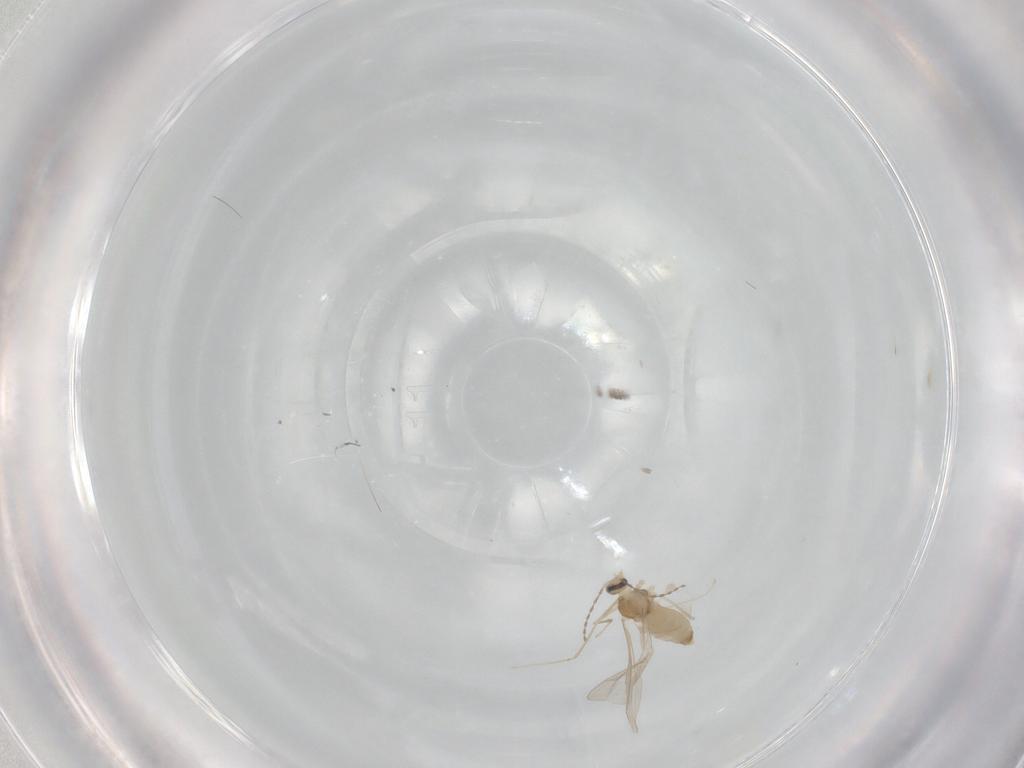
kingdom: Animalia
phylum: Arthropoda
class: Insecta
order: Diptera
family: Cecidomyiidae
